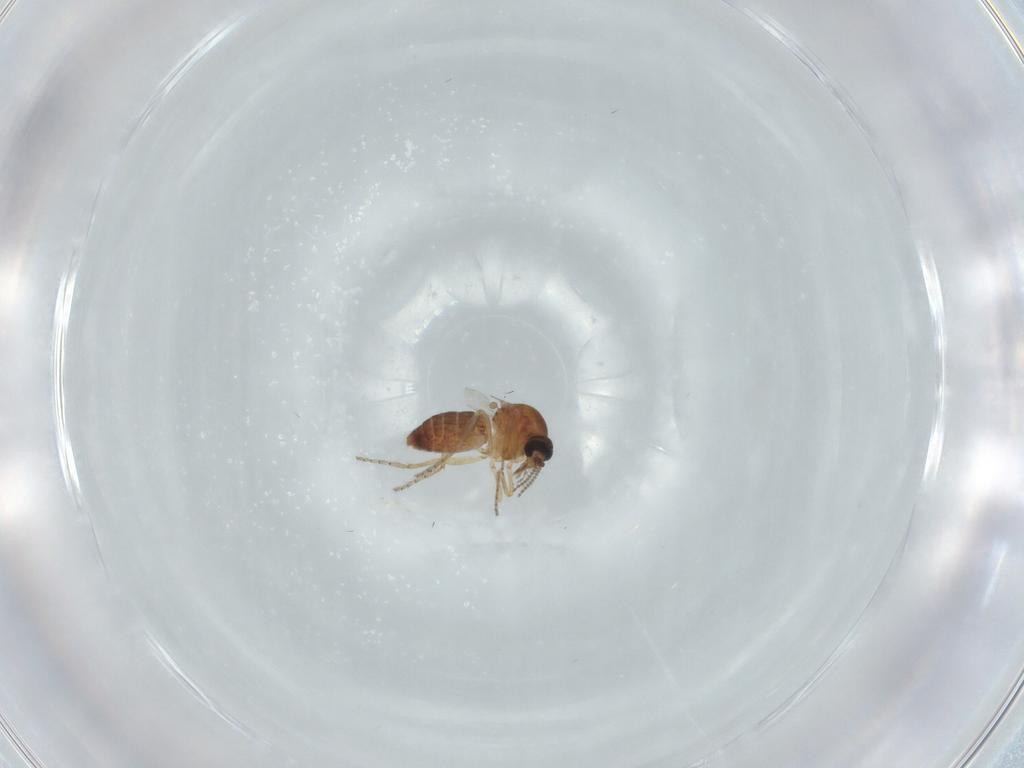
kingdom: Animalia
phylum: Arthropoda
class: Insecta
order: Diptera
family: Ceratopogonidae
